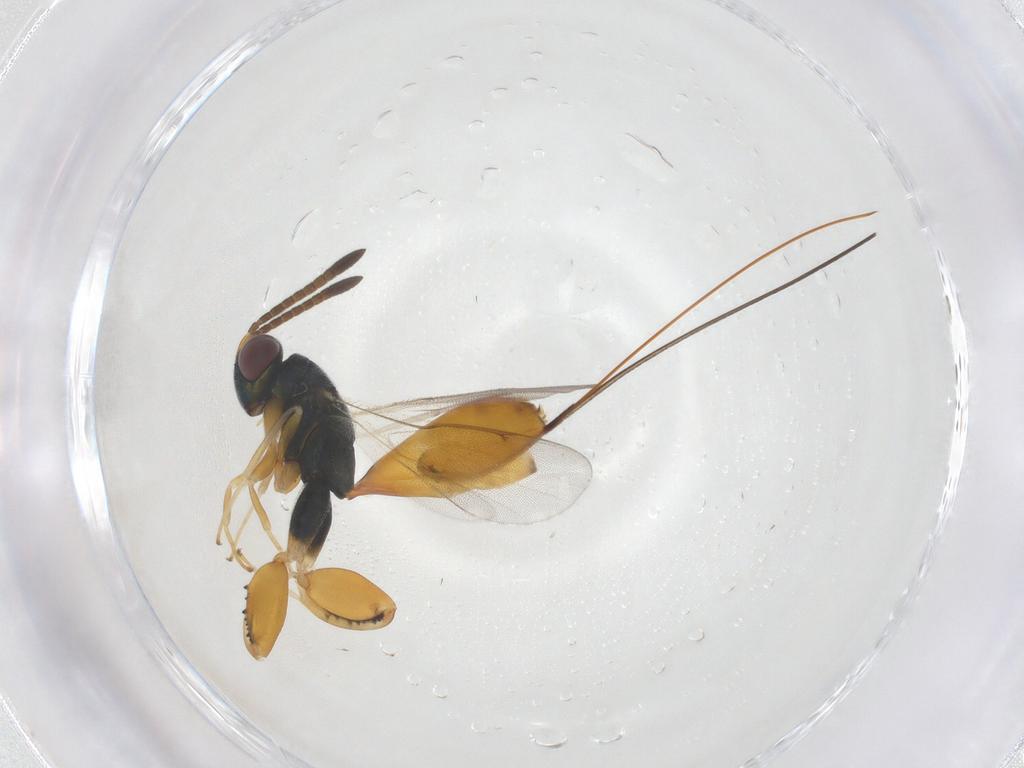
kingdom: Animalia
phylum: Arthropoda
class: Insecta
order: Hymenoptera
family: Torymidae
